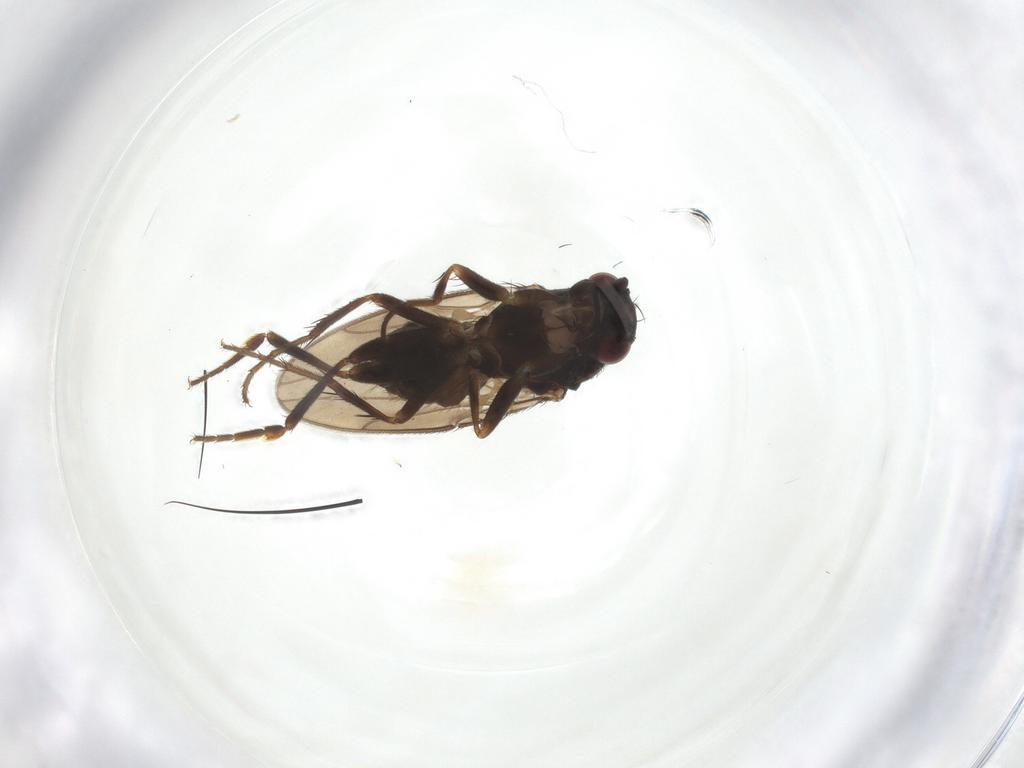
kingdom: Animalia
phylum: Arthropoda
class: Insecta
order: Diptera
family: Sphaeroceridae
